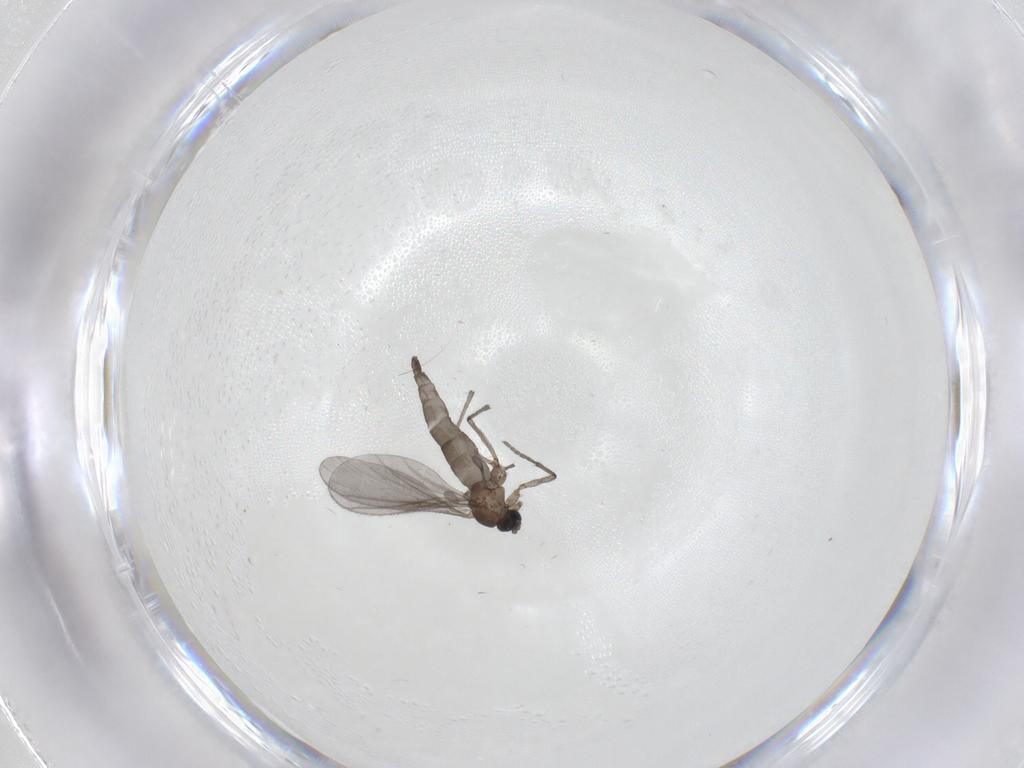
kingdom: Animalia
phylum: Arthropoda
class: Insecta
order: Diptera
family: Sciaridae
